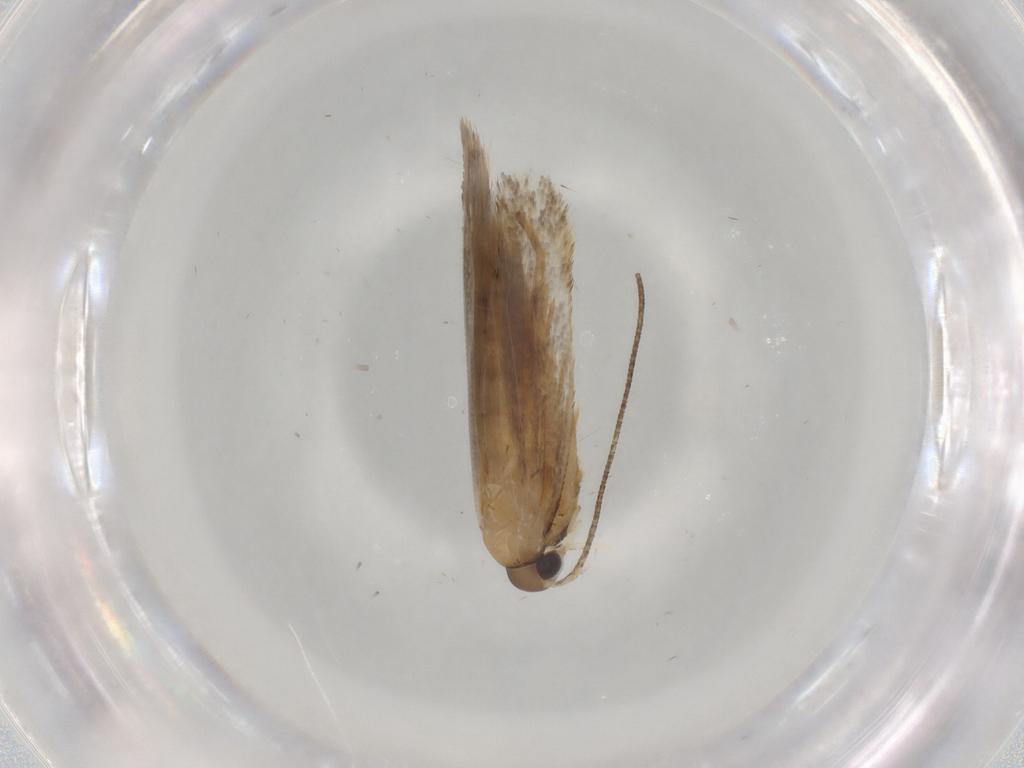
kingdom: Animalia
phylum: Arthropoda
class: Insecta
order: Lepidoptera
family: Autostichidae
